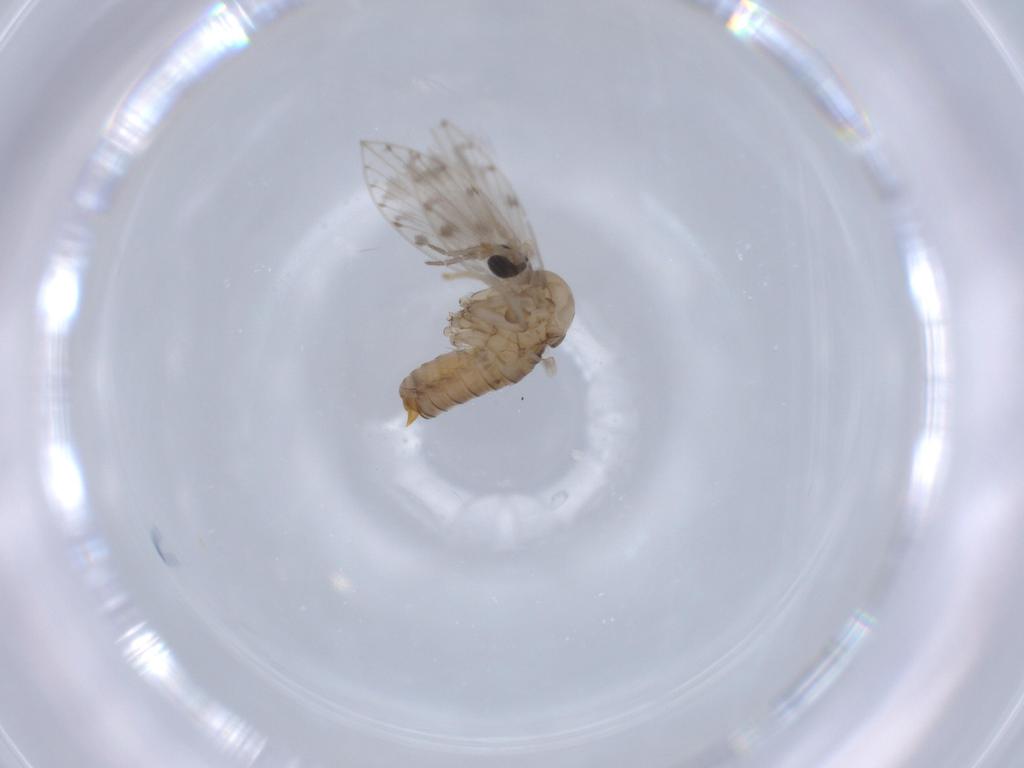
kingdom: Animalia
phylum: Arthropoda
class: Insecta
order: Diptera
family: Psychodidae
